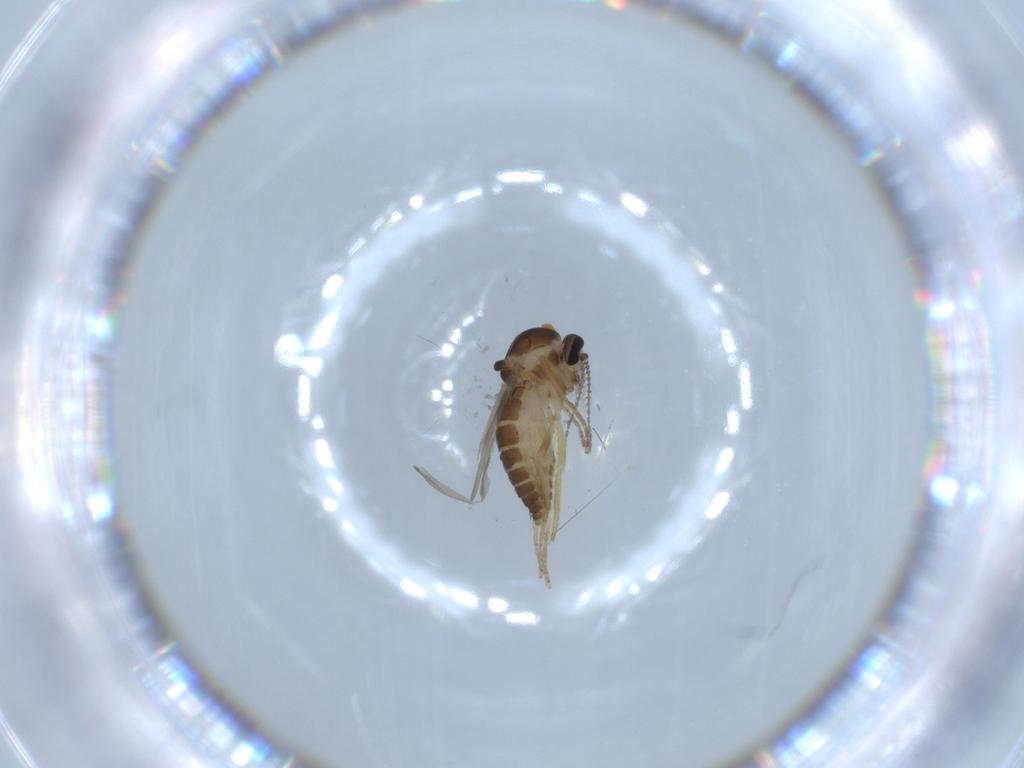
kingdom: Animalia
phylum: Arthropoda
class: Insecta
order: Diptera
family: Ceratopogonidae
